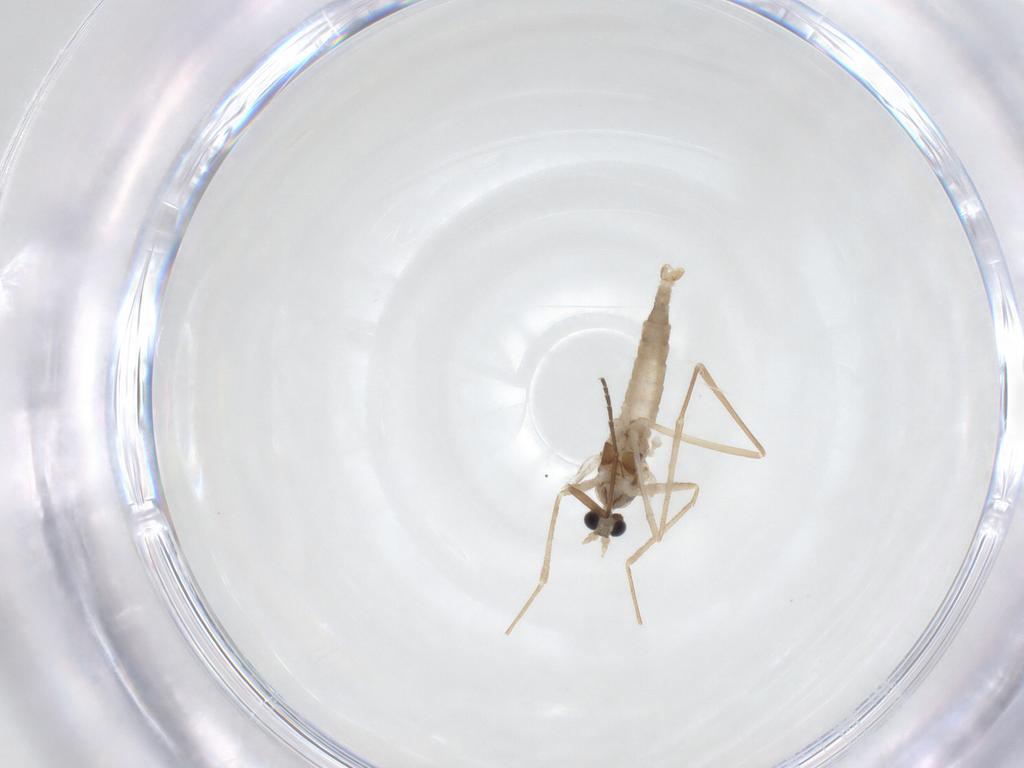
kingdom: Animalia
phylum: Arthropoda
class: Insecta
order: Diptera
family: Cecidomyiidae
